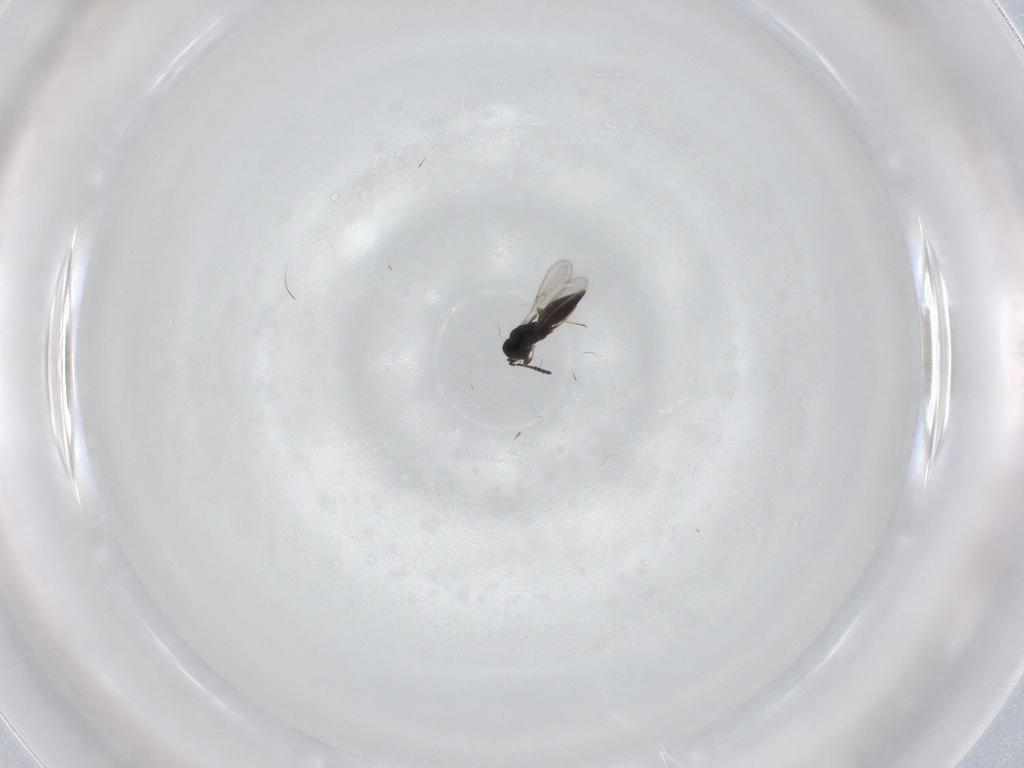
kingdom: Animalia
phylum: Arthropoda
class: Insecta
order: Hymenoptera
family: Scelionidae
